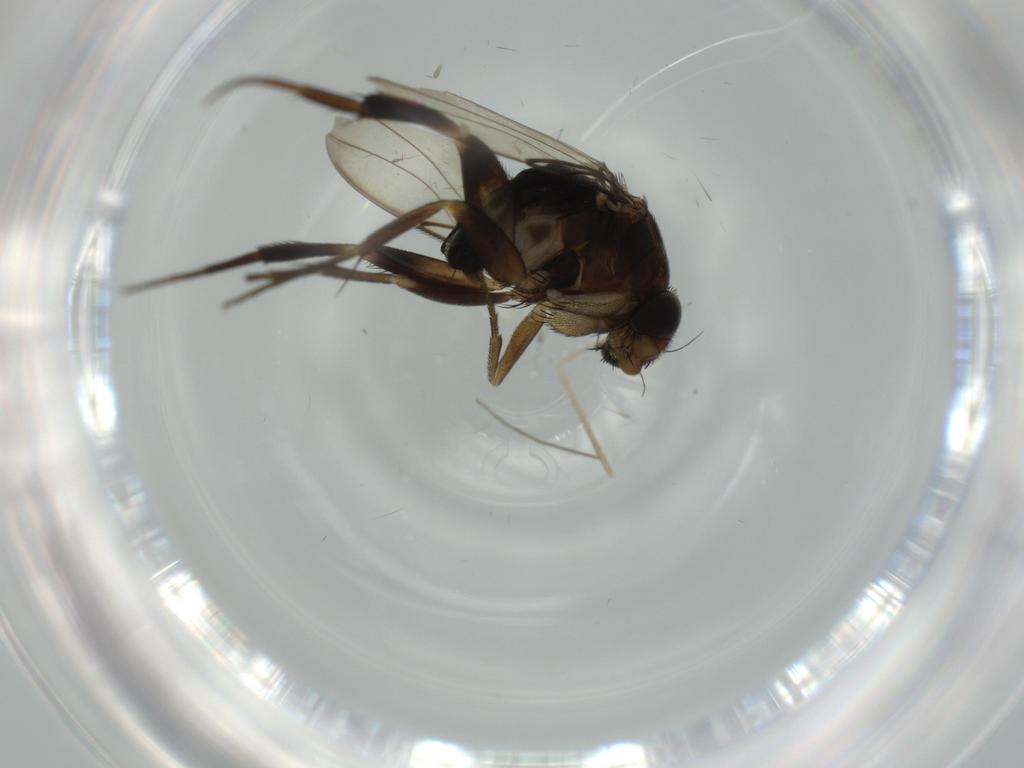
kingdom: Animalia
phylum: Arthropoda
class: Insecta
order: Diptera
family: Phoridae
